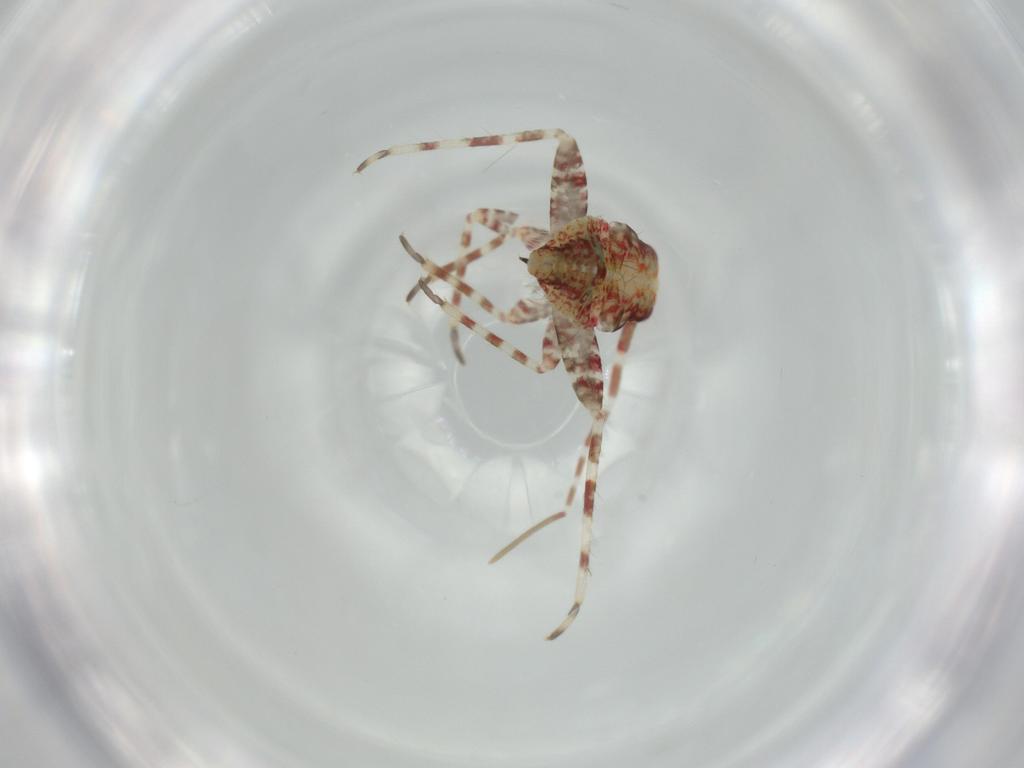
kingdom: Animalia
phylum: Arthropoda
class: Insecta
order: Hemiptera
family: Miridae
